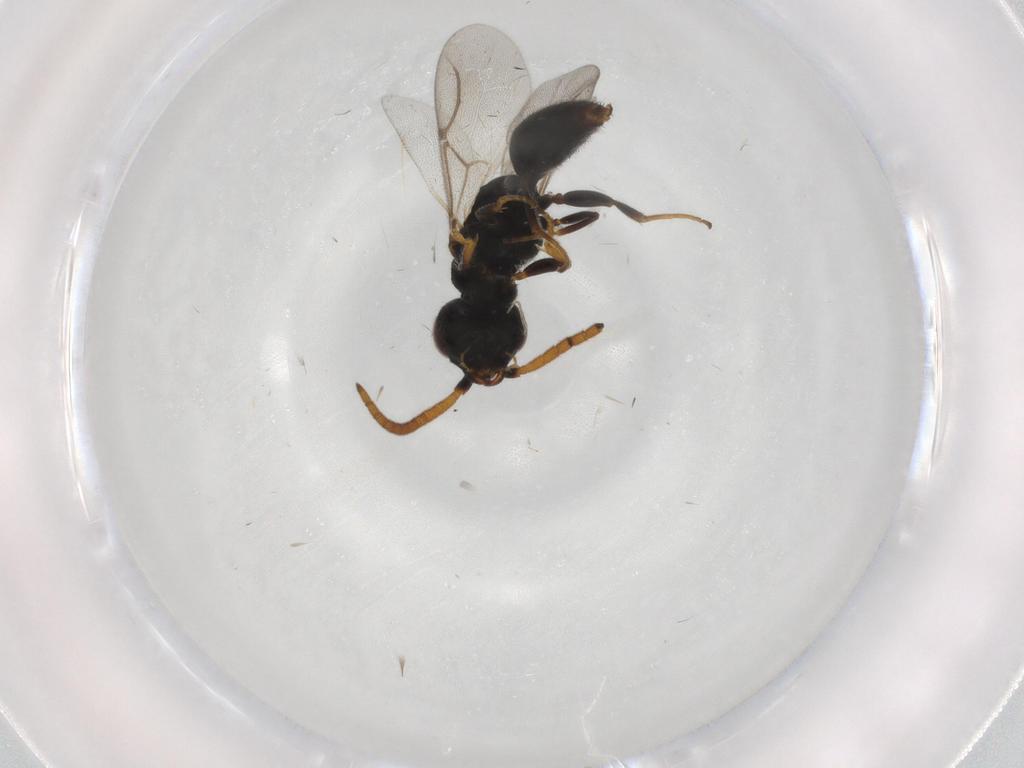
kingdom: Animalia
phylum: Arthropoda
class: Insecta
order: Hymenoptera
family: Bethylidae
